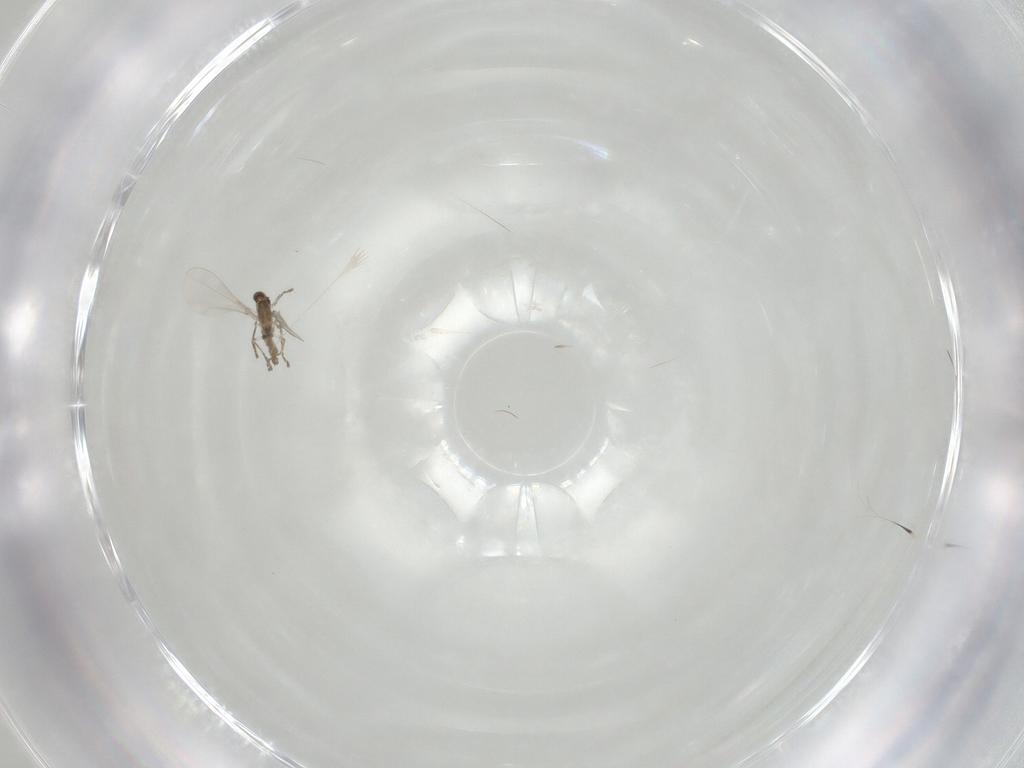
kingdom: Animalia
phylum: Arthropoda
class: Insecta
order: Diptera
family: Cecidomyiidae
